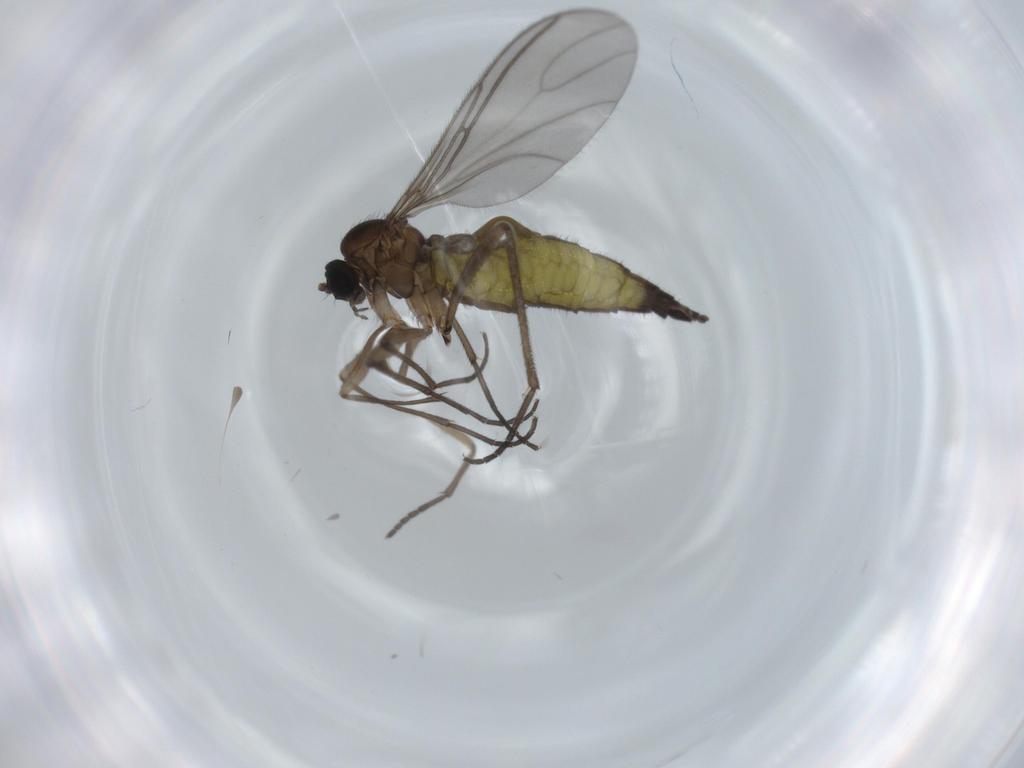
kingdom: Animalia
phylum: Arthropoda
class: Insecta
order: Diptera
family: Ceratopogonidae
